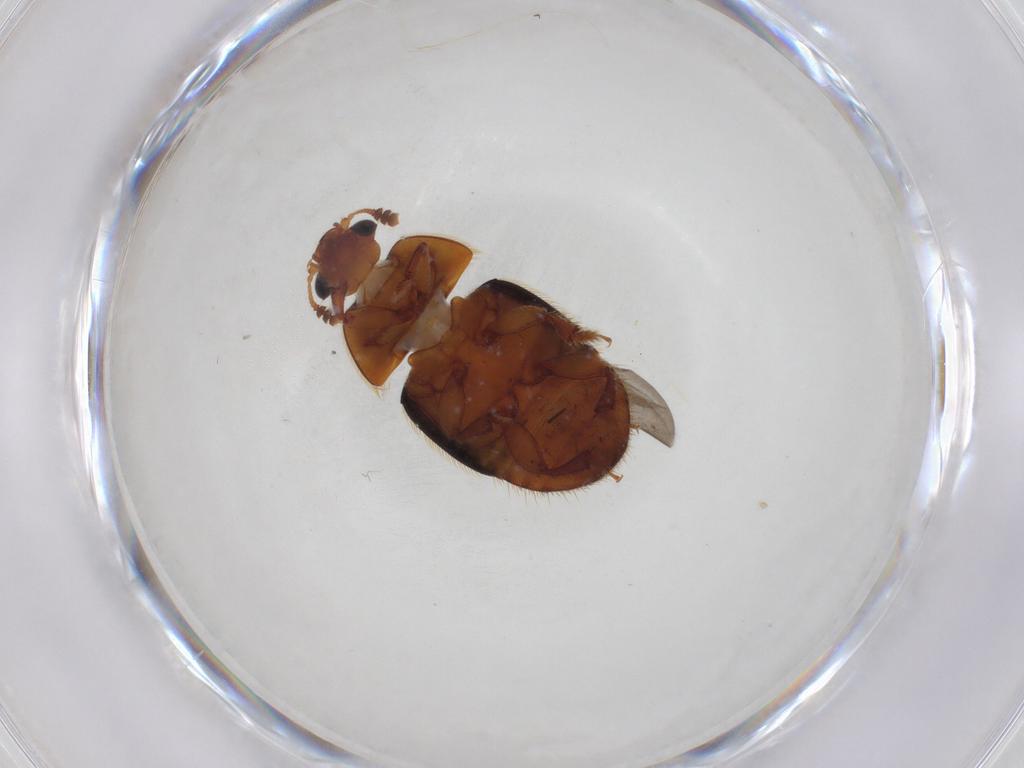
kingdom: Animalia
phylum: Arthropoda
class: Insecta
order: Coleoptera
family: Nitidulidae
